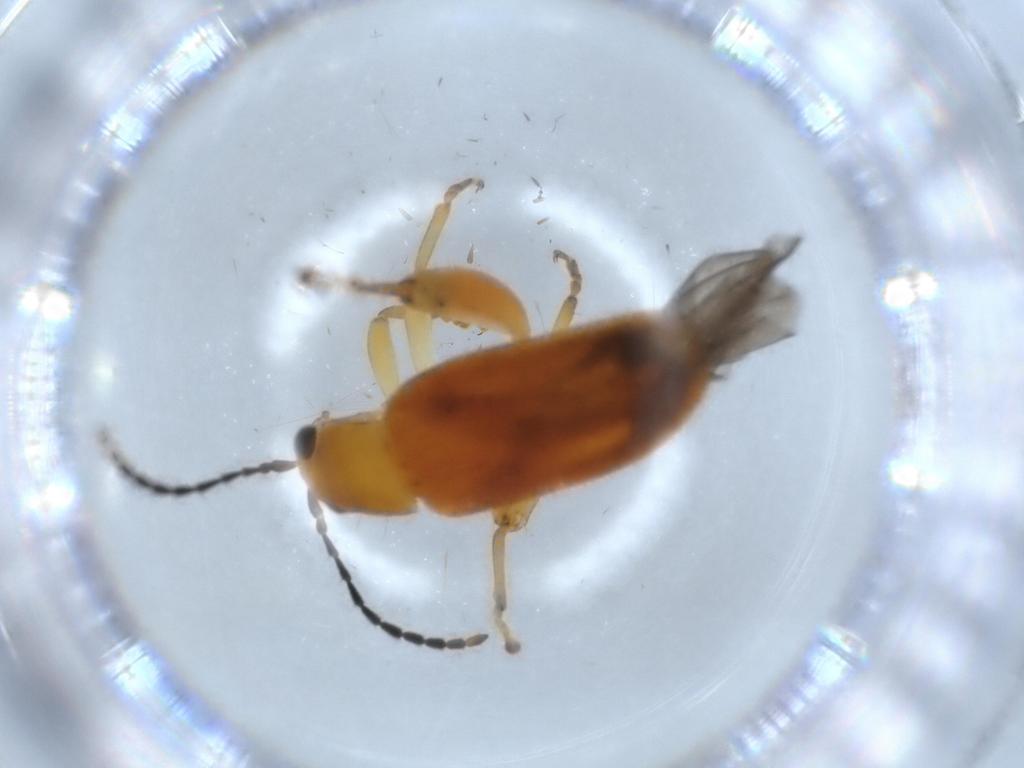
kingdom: Animalia
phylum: Arthropoda
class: Insecta
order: Coleoptera
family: Chrysomelidae
